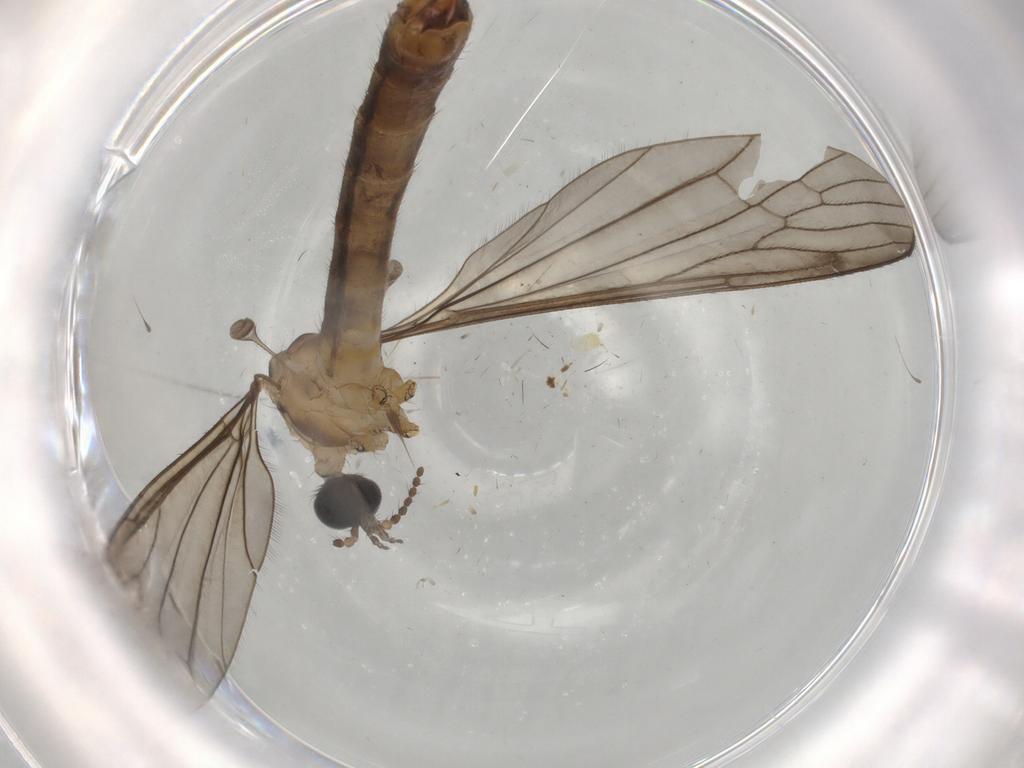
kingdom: Animalia
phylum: Arthropoda
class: Insecta
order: Diptera
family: Limoniidae
